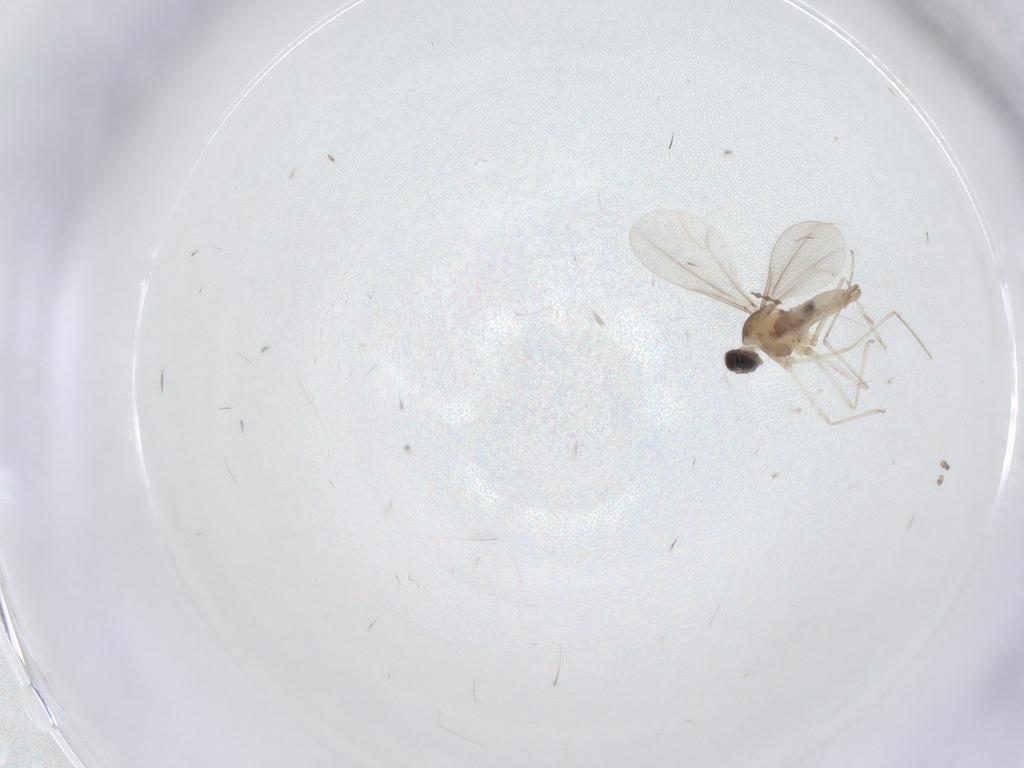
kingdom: Animalia
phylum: Arthropoda
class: Insecta
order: Diptera
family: Cecidomyiidae
